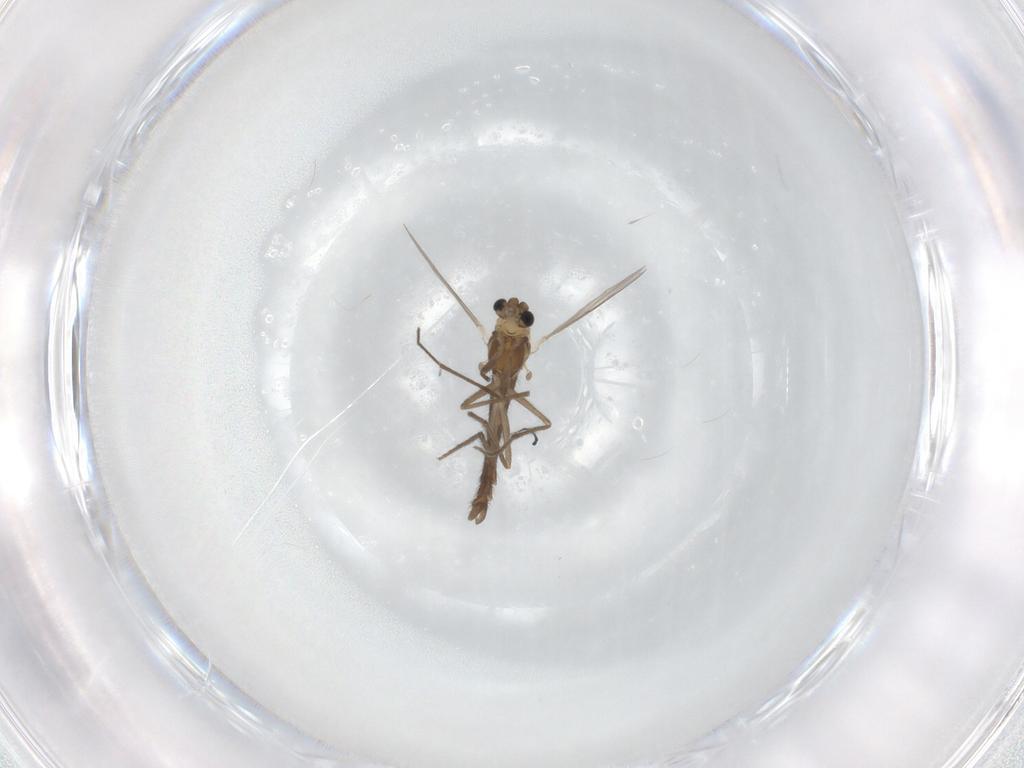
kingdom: Animalia
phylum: Arthropoda
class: Insecta
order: Diptera
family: Chironomidae
